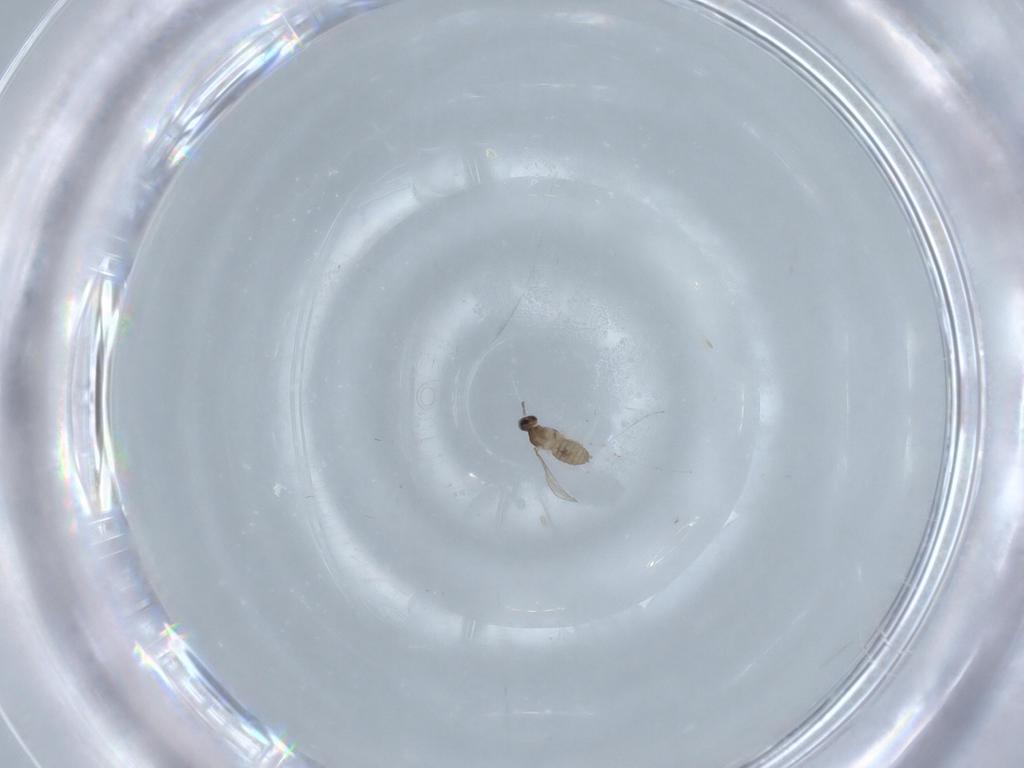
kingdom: Animalia
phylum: Arthropoda
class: Insecta
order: Diptera
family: Cecidomyiidae
